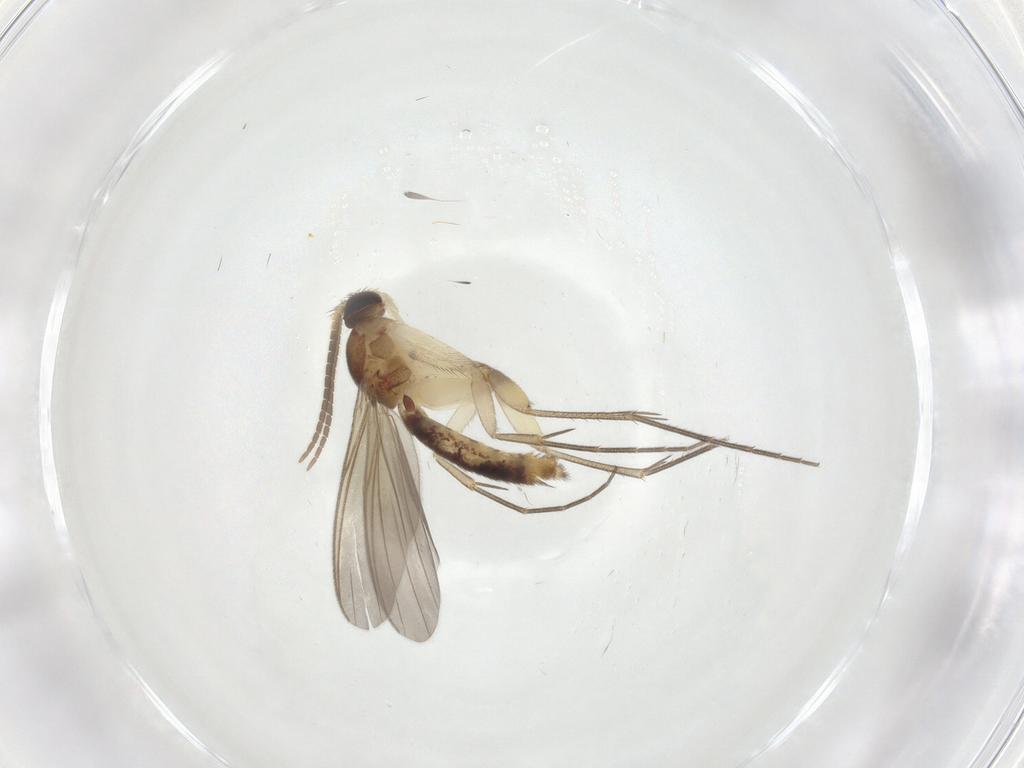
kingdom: Animalia
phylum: Arthropoda
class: Insecta
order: Diptera
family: Mycetophilidae
